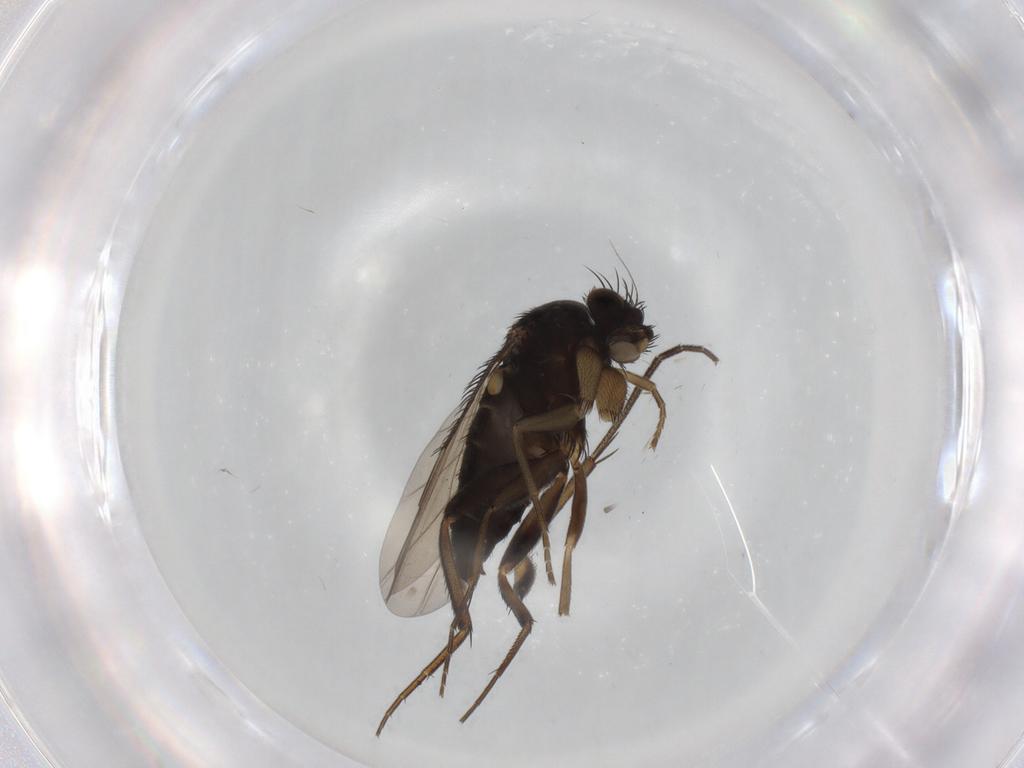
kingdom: Animalia
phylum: Arthropoda
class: Insecta
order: Diptera
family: Phoridae
